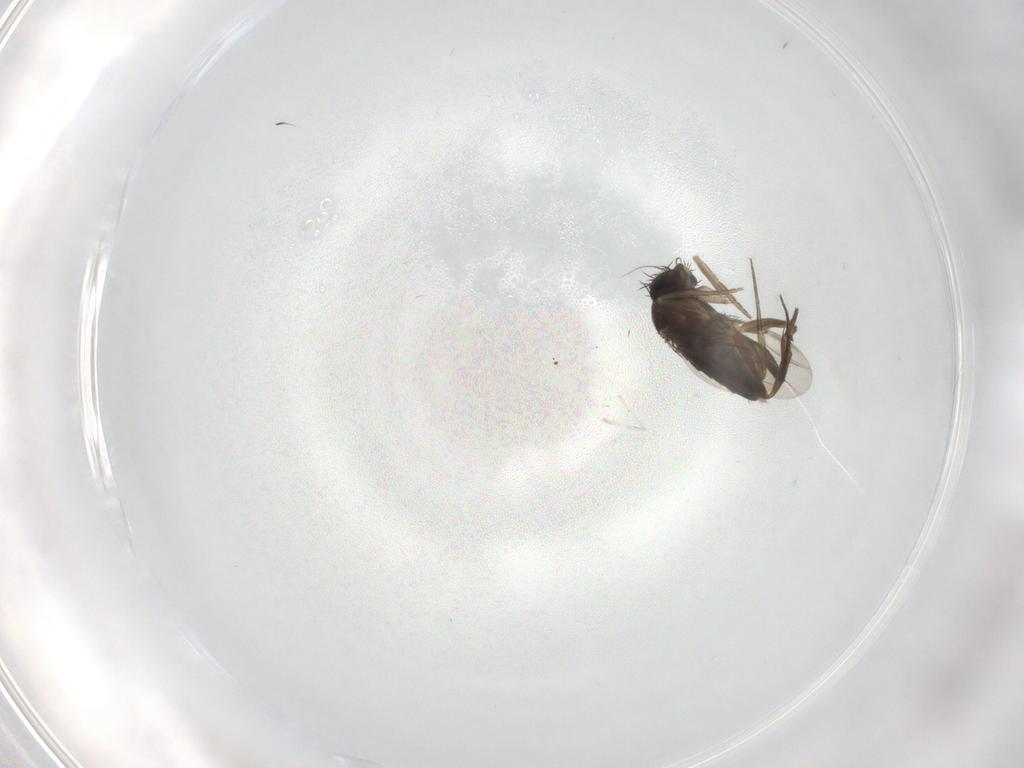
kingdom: Animalia
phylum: Arthropoda
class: Insecta
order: Diptera
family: Phoridae
